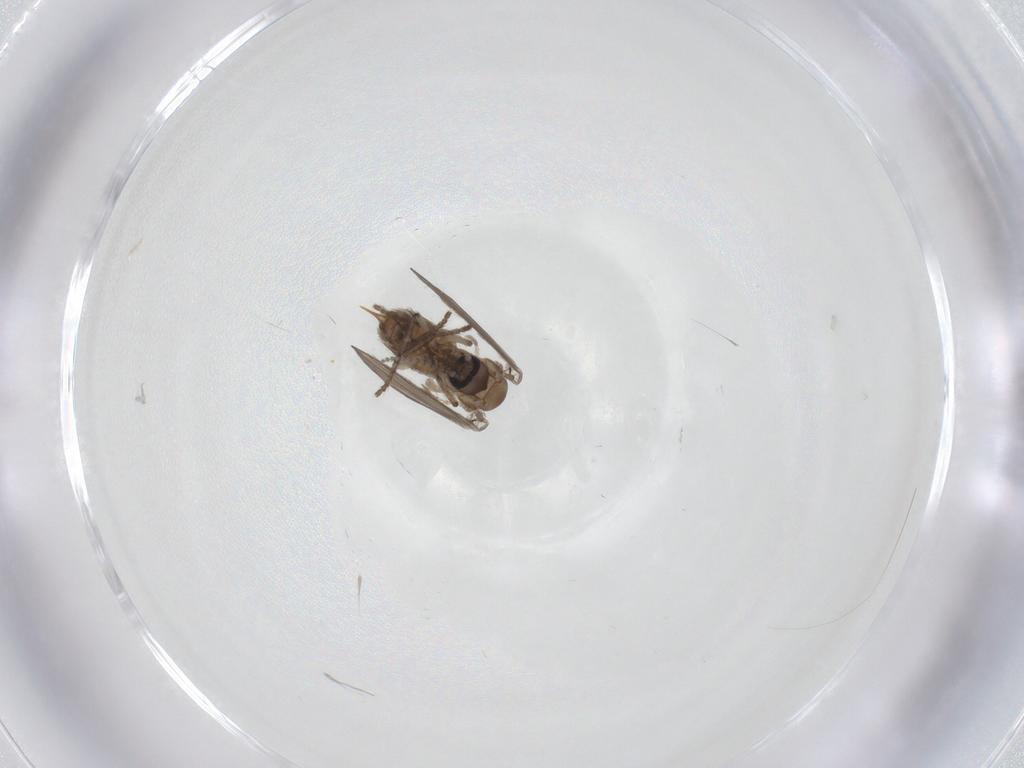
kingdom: Animalia
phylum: Arthropoda
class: Insecta
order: Diptera
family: Cecidomyiidae
